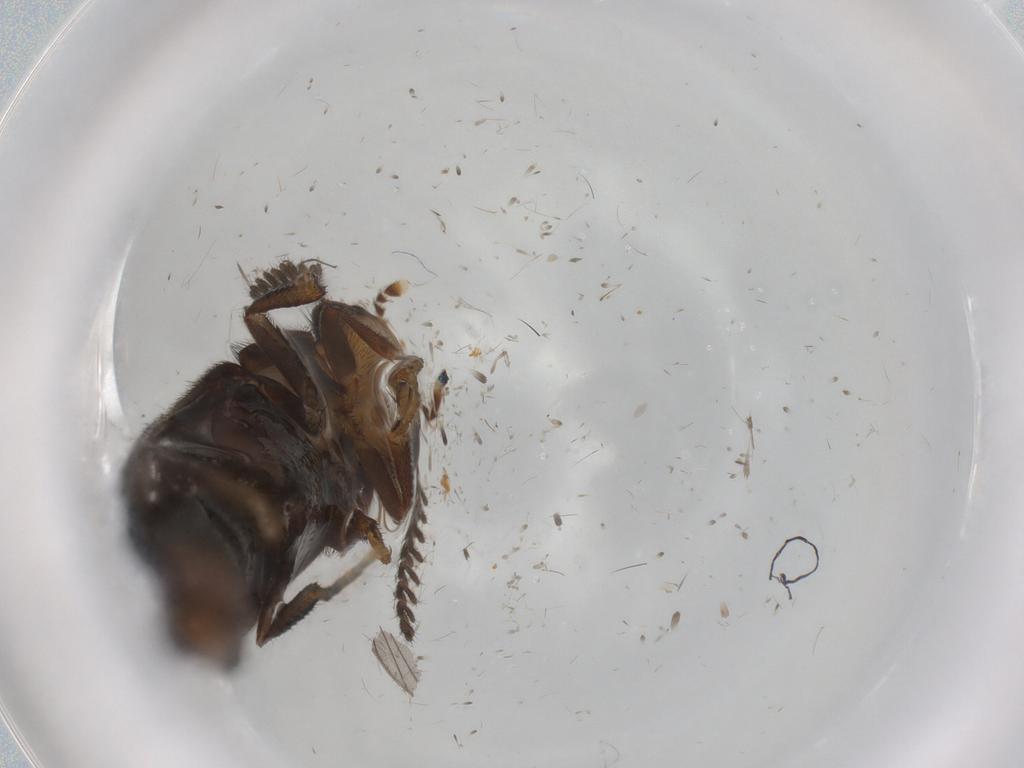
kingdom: Animalia
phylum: Arthropoda
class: Insecta
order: Coleoptera
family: Phengodidae
